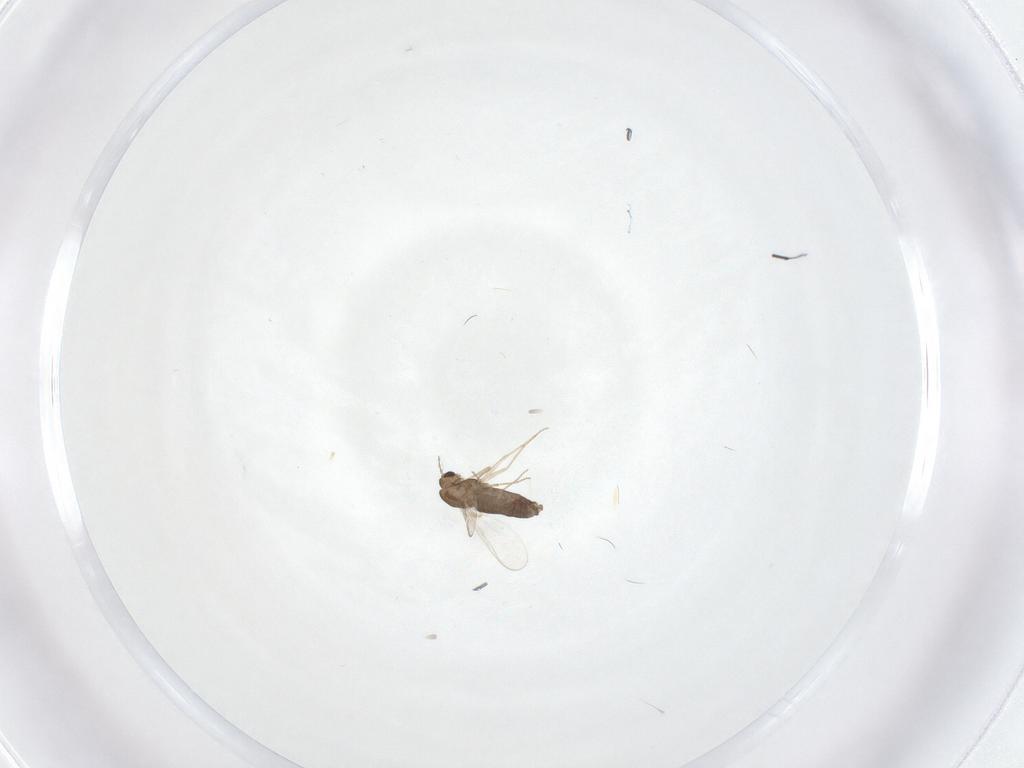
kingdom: Animalia
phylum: Arthropoda
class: Insecta
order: Diptera
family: Chironomidae
